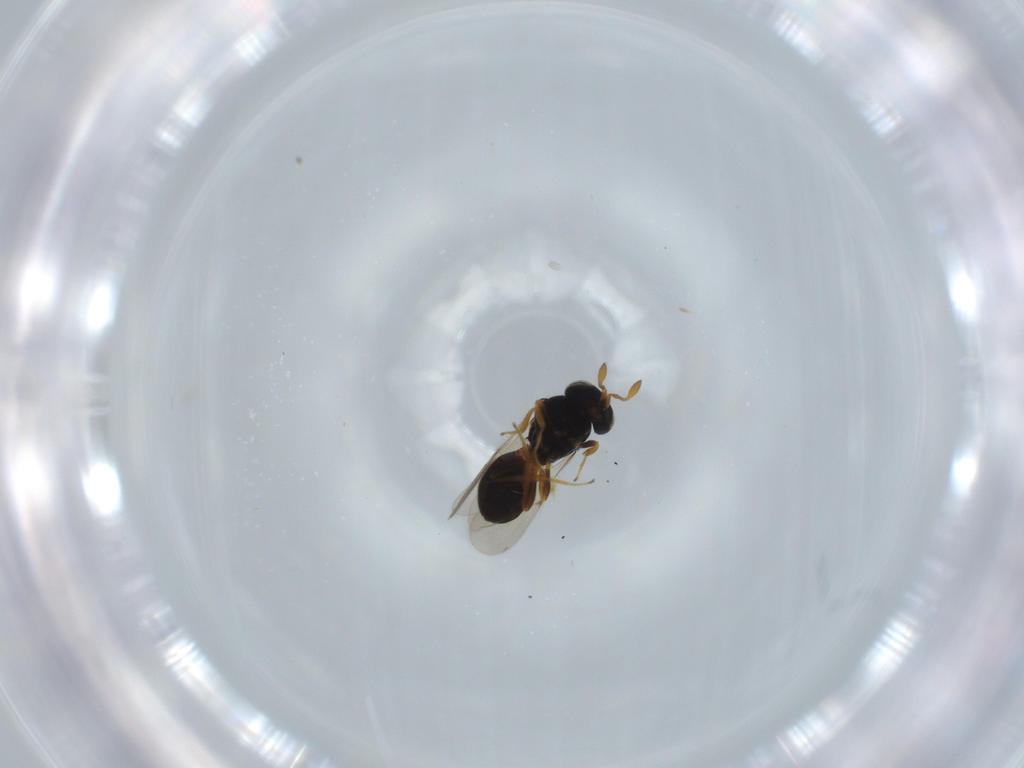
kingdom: Animalia
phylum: Arthropoda
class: Insecta
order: Hymenoptera
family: Scelionidae
